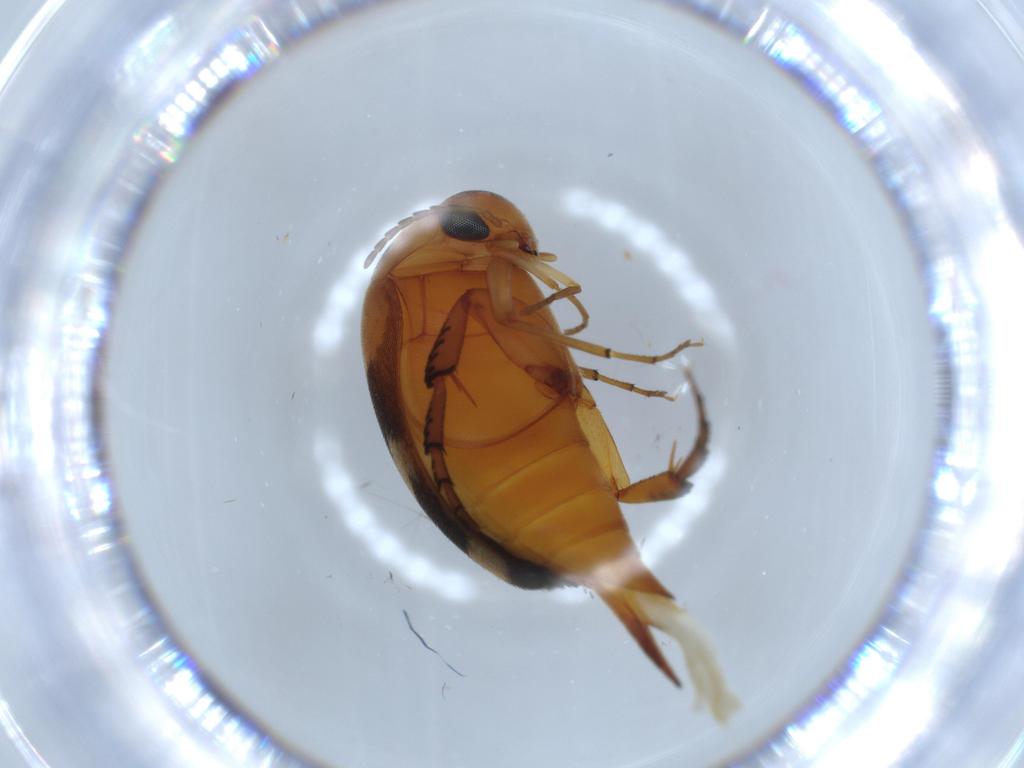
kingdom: Animalia
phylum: Arthropoda
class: Insecta
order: Coleoptera
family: Mordellidae
